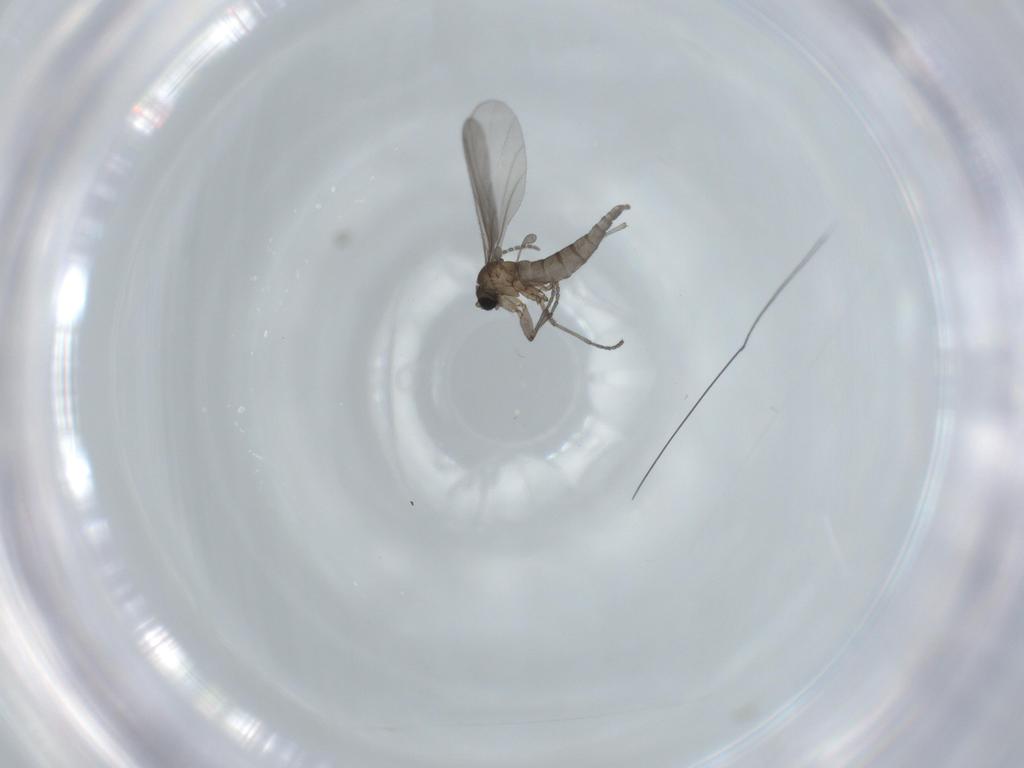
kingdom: Animalia
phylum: Arthropoda
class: Insecta
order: Diptera
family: Sciaridae
